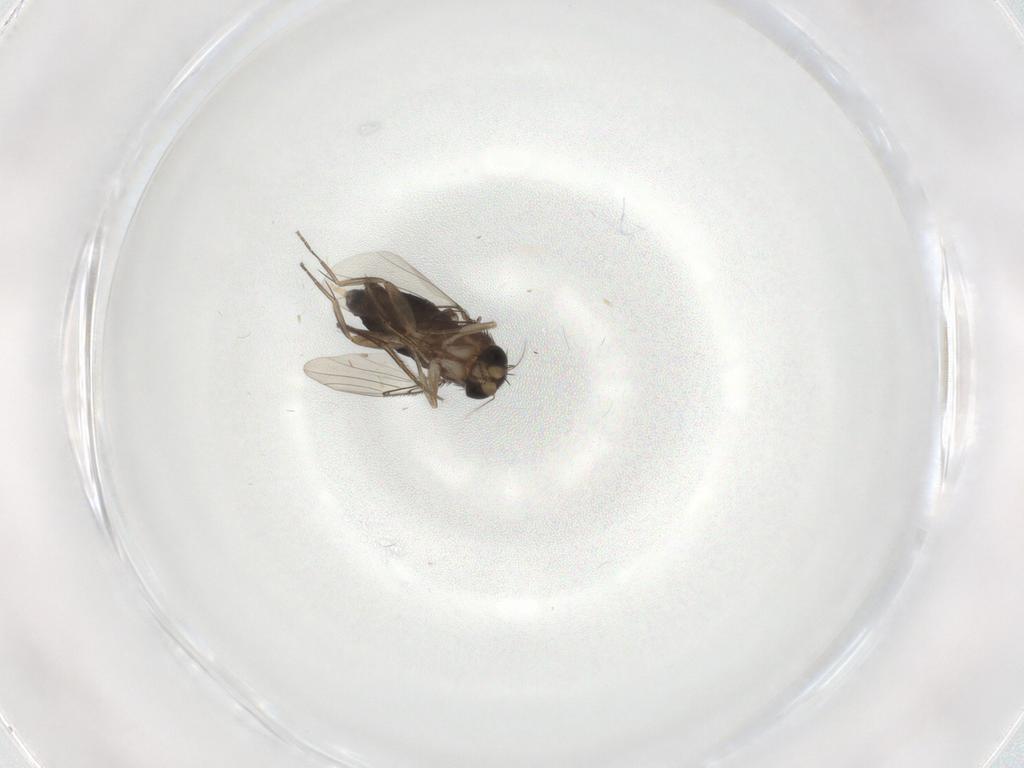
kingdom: Animalia
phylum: Arthropoda
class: Insecta
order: Diptera
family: Phoridae
